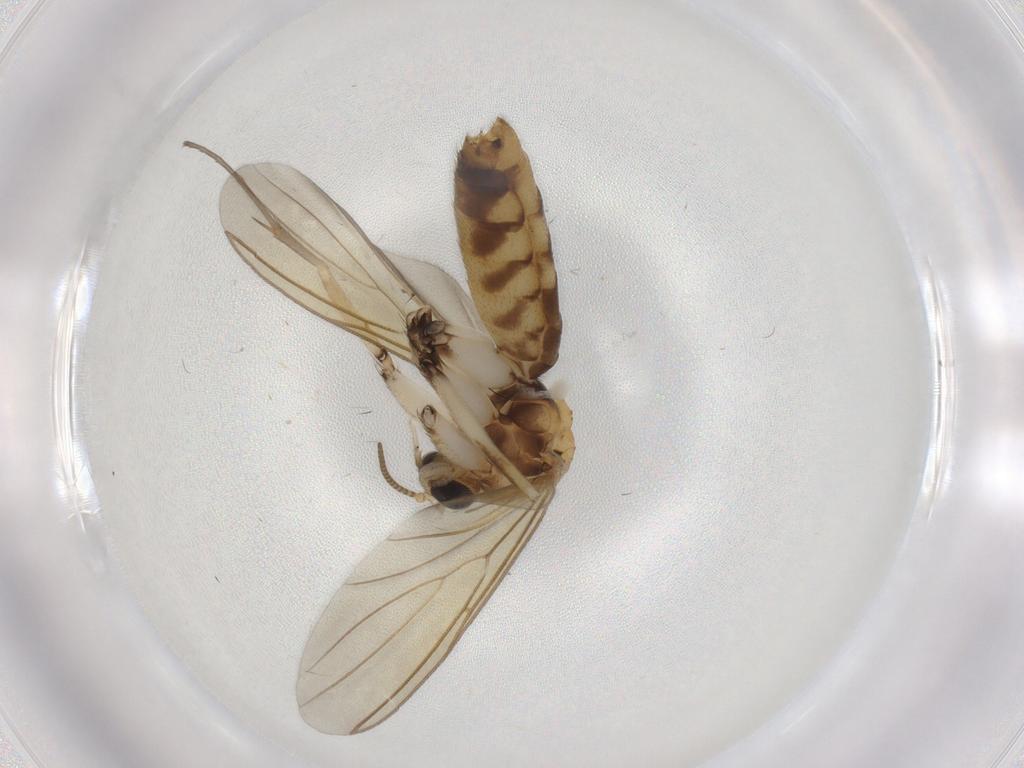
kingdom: Animalia
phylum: Arthropoda
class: Insecta
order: Diptera
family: Mycetophilidae
